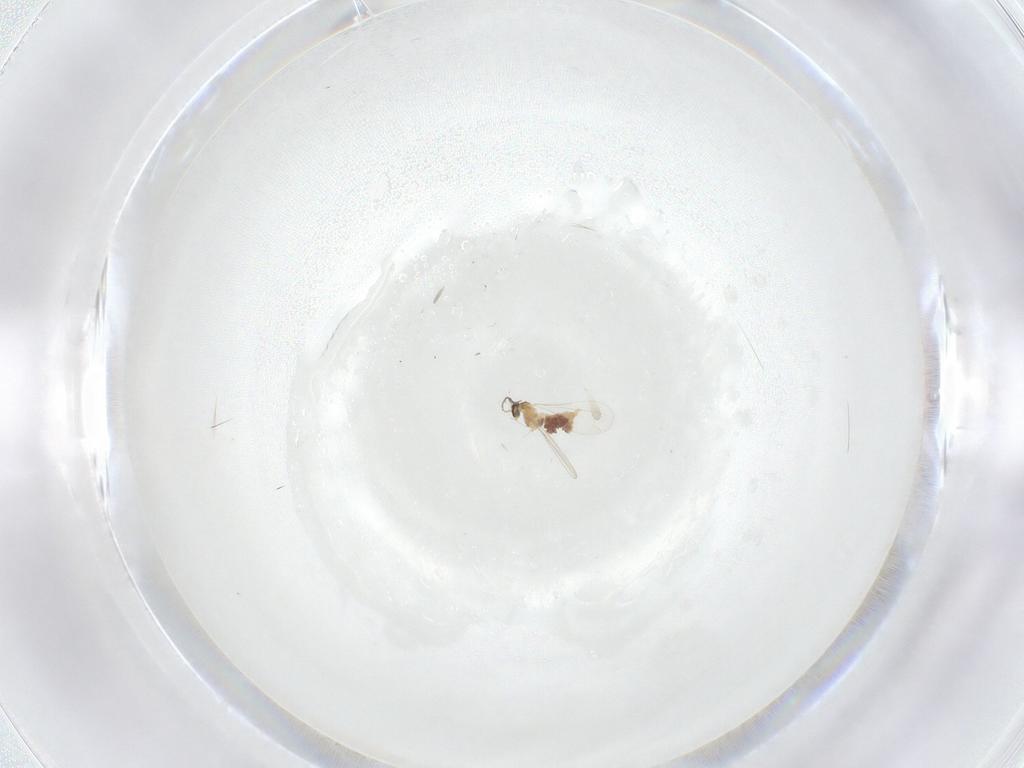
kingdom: Animalia
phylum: Arthropoda
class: Insecta
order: Diptera
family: Cecidomyiidae
